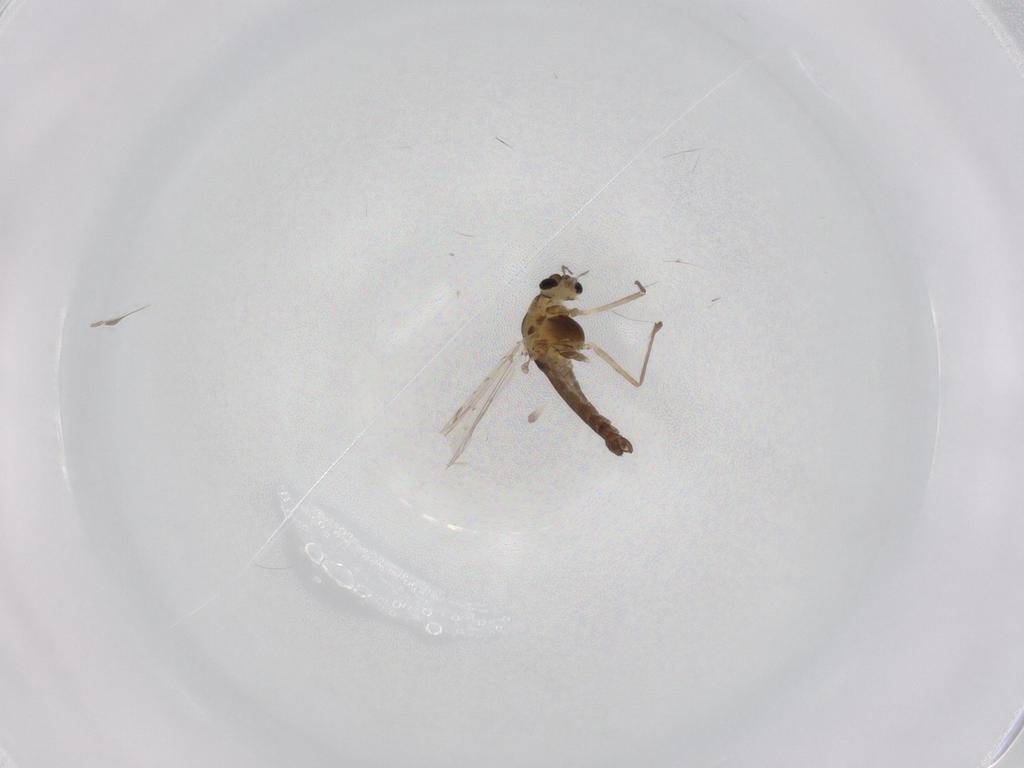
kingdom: Animalia
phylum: Arthropoda
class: Insecta
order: Diptera
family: Chironomidae
